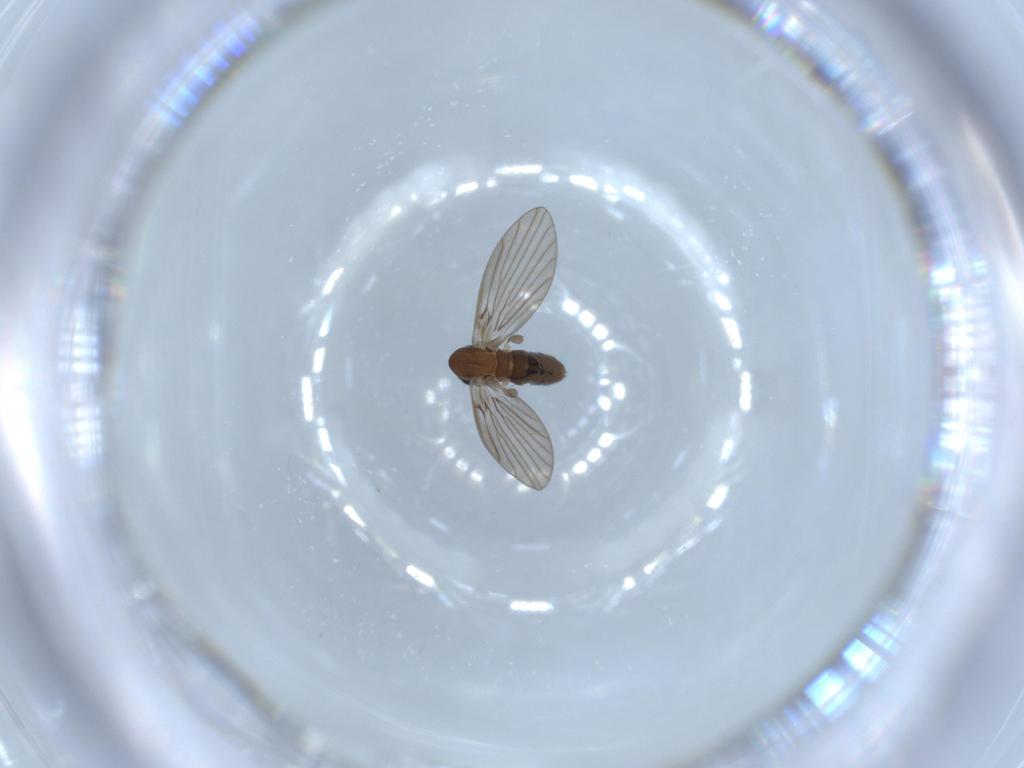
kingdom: Animalia
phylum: Arthropoda
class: Insecta
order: Diptera
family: Psychodidae
